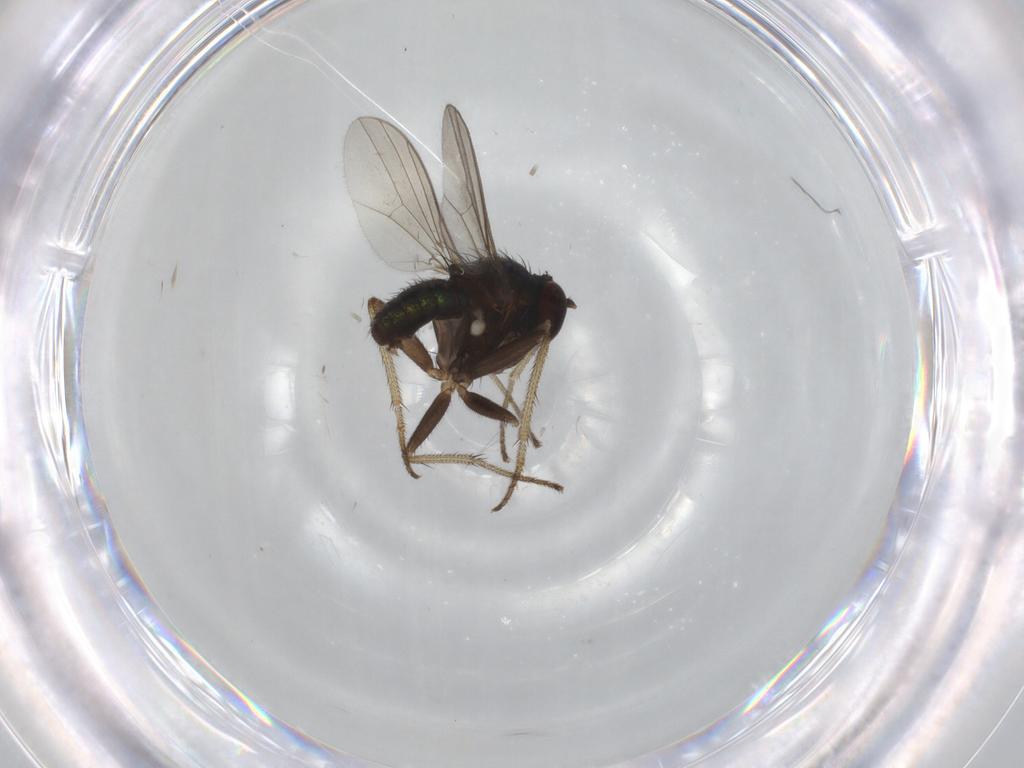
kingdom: Animalia
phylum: Arthropoda
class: Insecta
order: Diptera
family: Dolichopodidae
